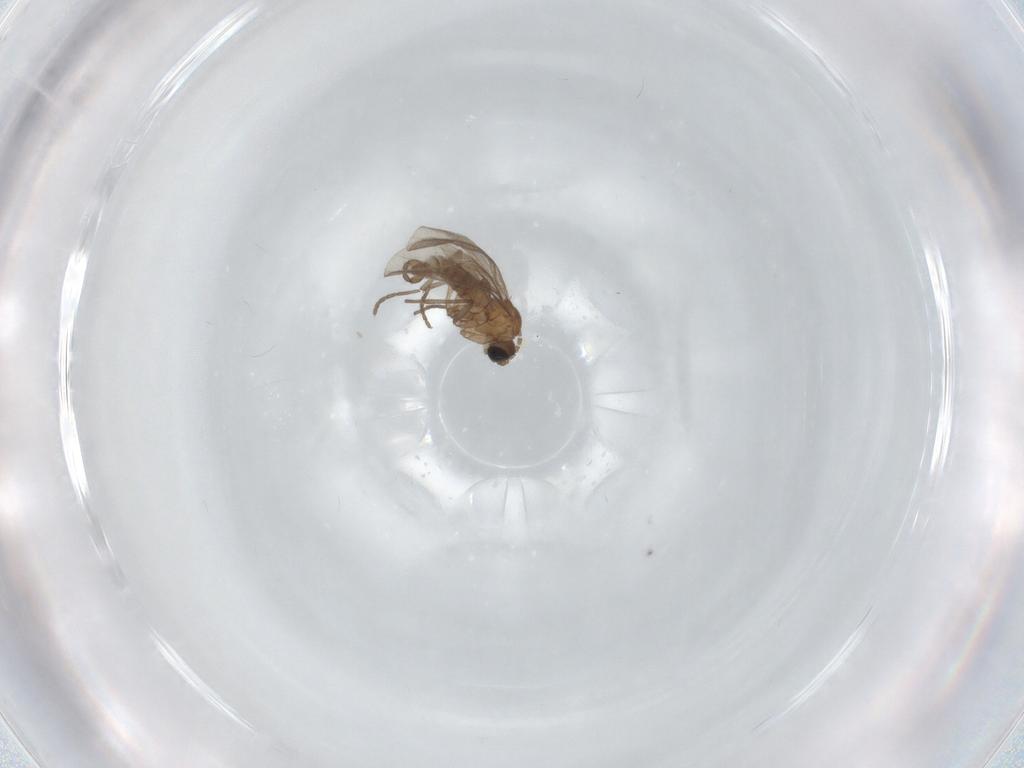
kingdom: Animalia
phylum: Arthropoda
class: Insecta
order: Diptera
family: Sciaridae
